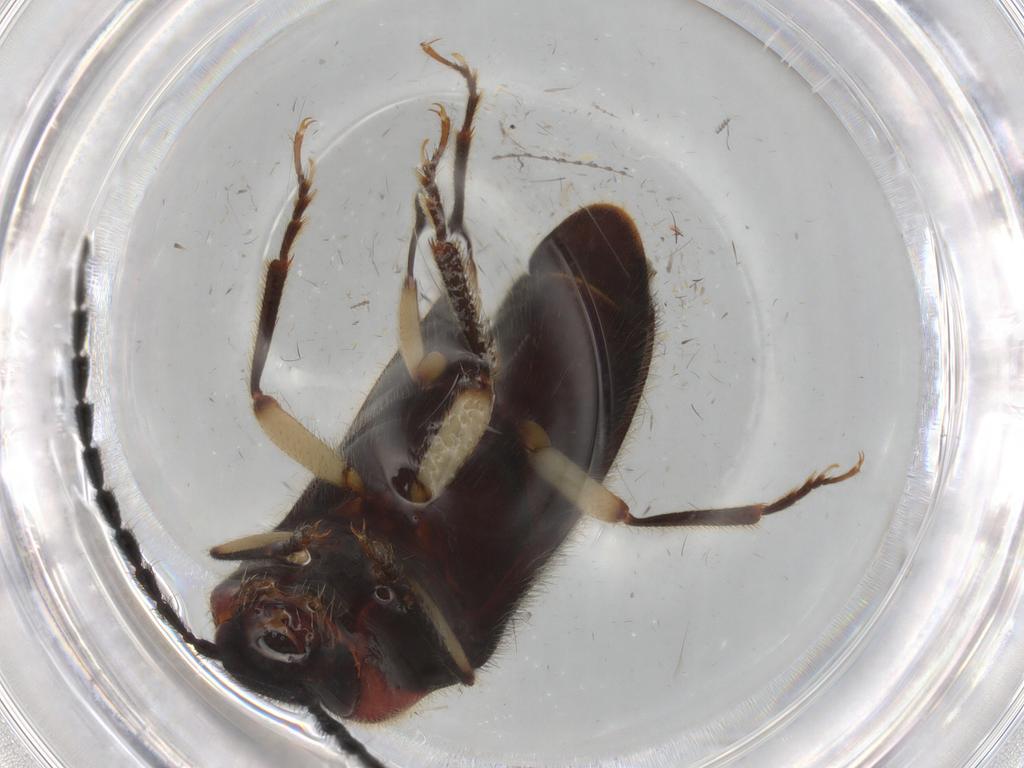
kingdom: Animalia
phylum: Arthropoda
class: Insecta
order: Coleoptera
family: Elateridae
